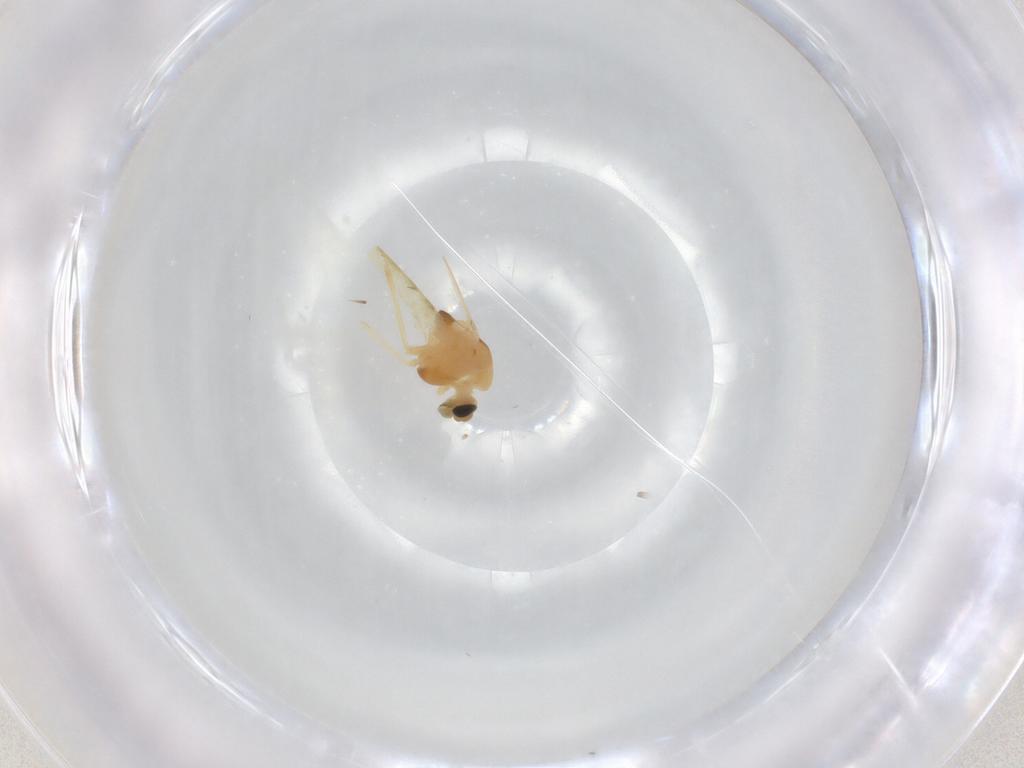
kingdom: Animalia
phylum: Arthropoda
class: Insecta
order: Diptera
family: Chironomidae
